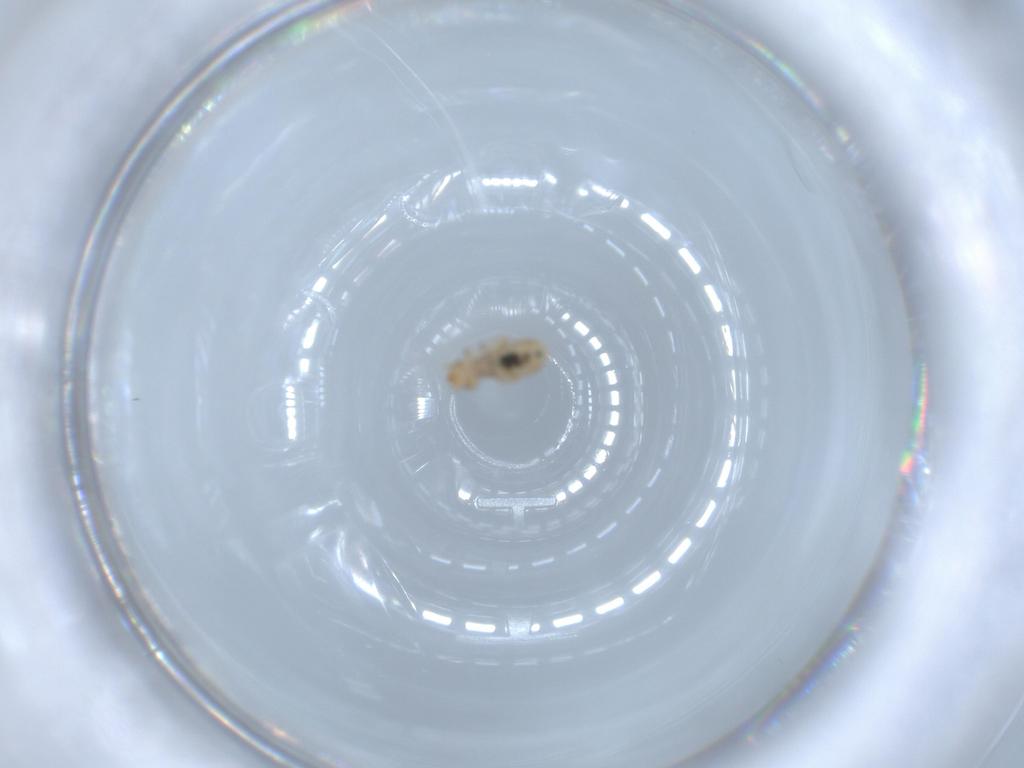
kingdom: Animalia
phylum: Arthropoda
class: Insecta
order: Psocodea
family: Liposcelididae
